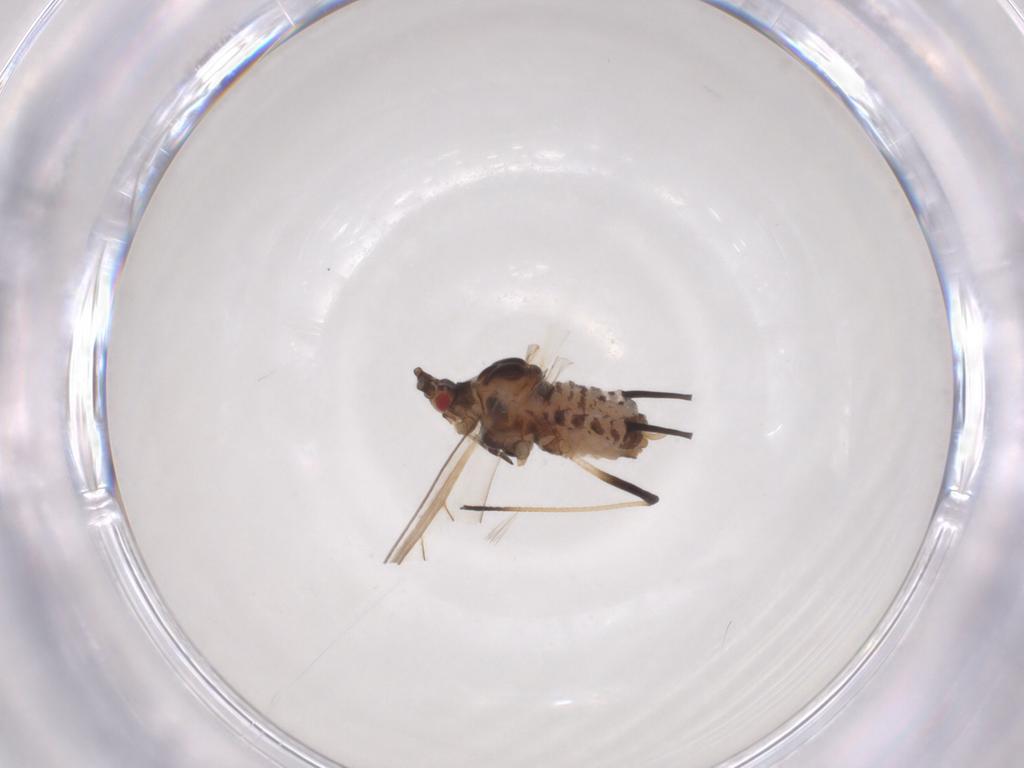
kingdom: Animalia
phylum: Arthropoda
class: Insecta
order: Hemiptera
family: Aphididae
